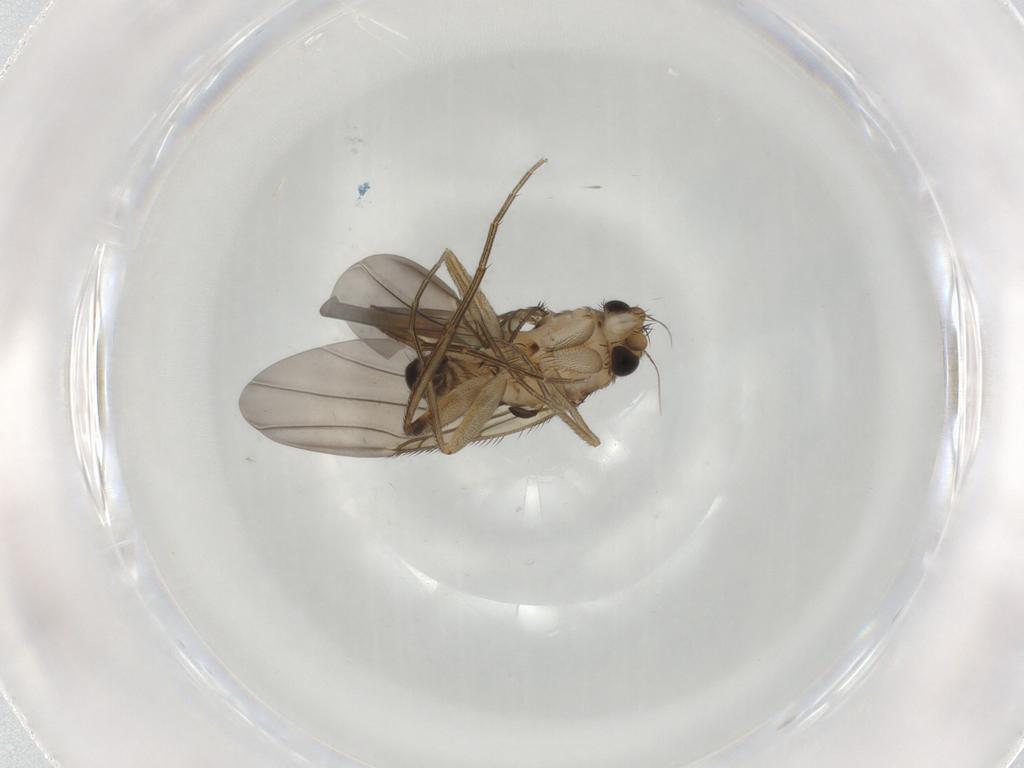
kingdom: Animalia
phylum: Arthropoda
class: Insecta
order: Diptera
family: Phoridae
